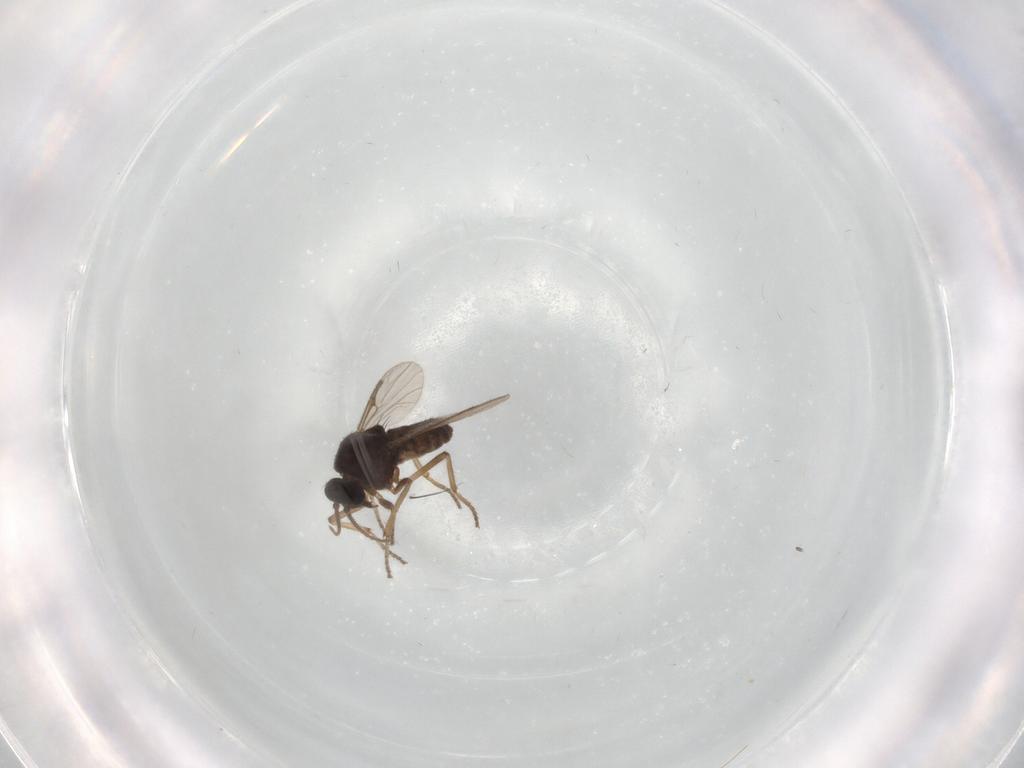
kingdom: Animalia
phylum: Arthropoda
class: Insecta
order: Diptera
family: Ceratopogonidae
